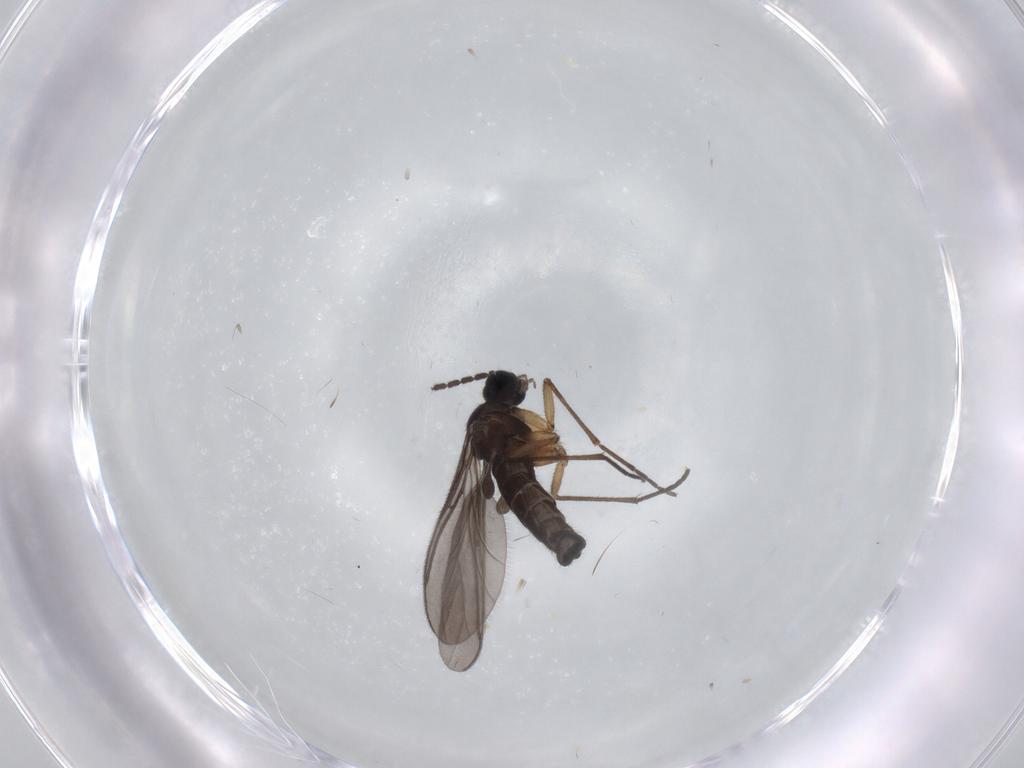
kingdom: Animalia
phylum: Arthropoda
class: Insecta
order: Diptera
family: Sciaridae
